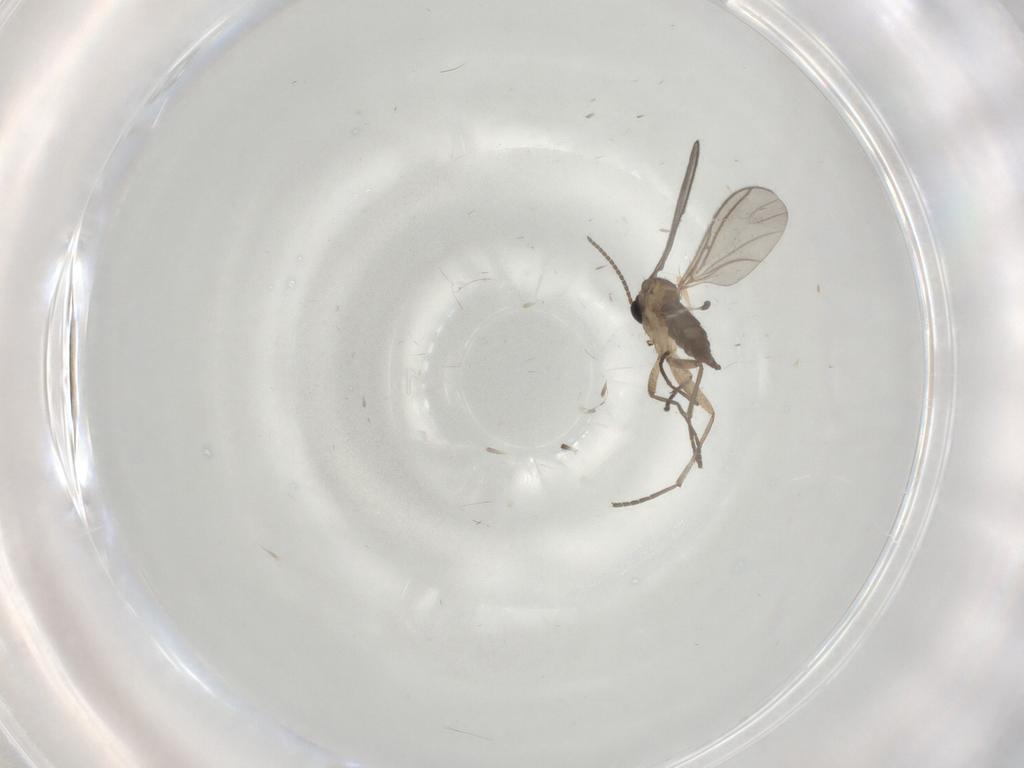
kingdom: Animalia
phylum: Arthropoda
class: Insecta
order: Diptera
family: Sciaridae
